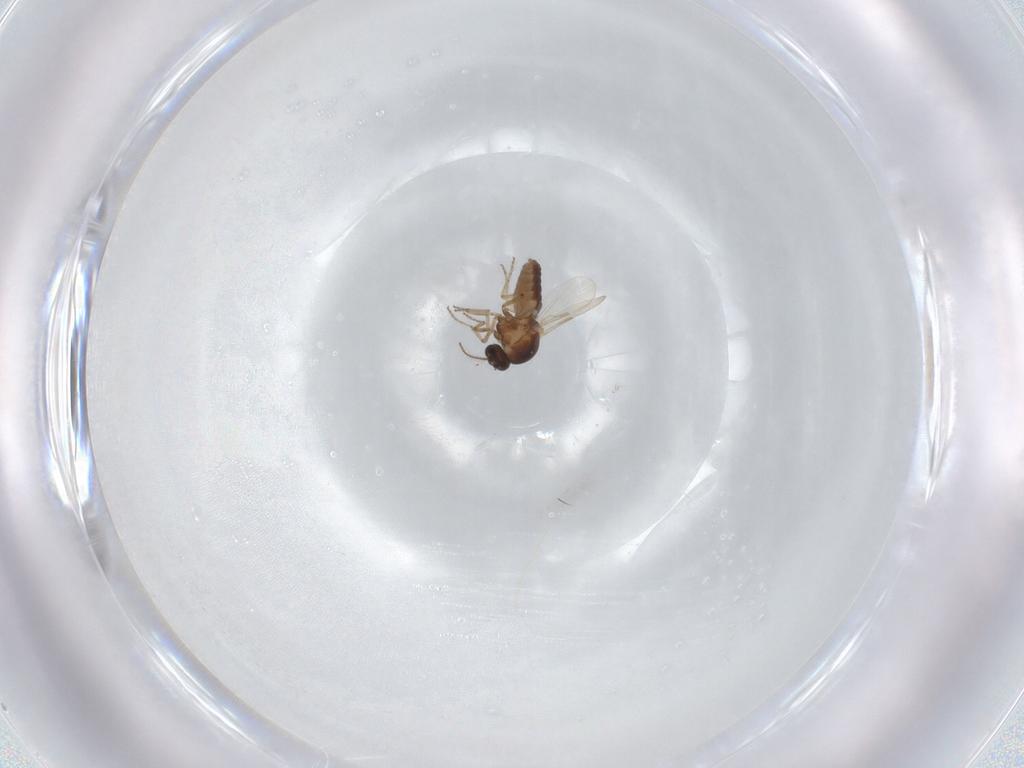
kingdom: Animalia
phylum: Arthropoda
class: Insecta
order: Diptera
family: Ceratopogonidae
